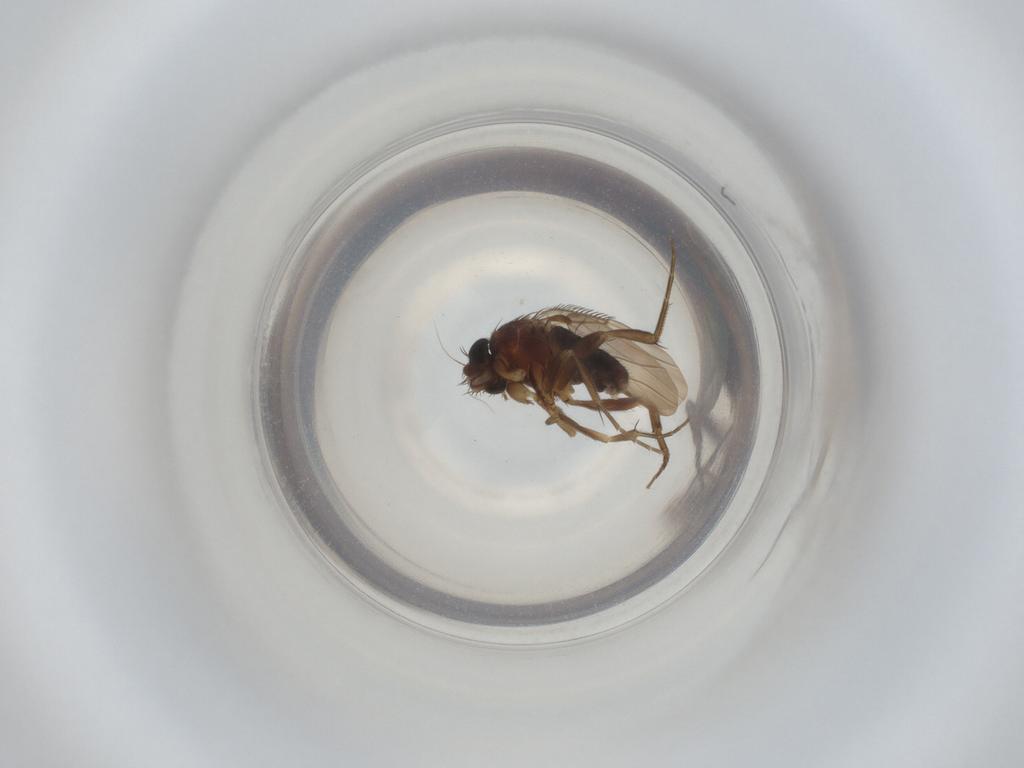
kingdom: Animalia
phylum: Arthropoda
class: Insecta
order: Diptera
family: Phoridae
